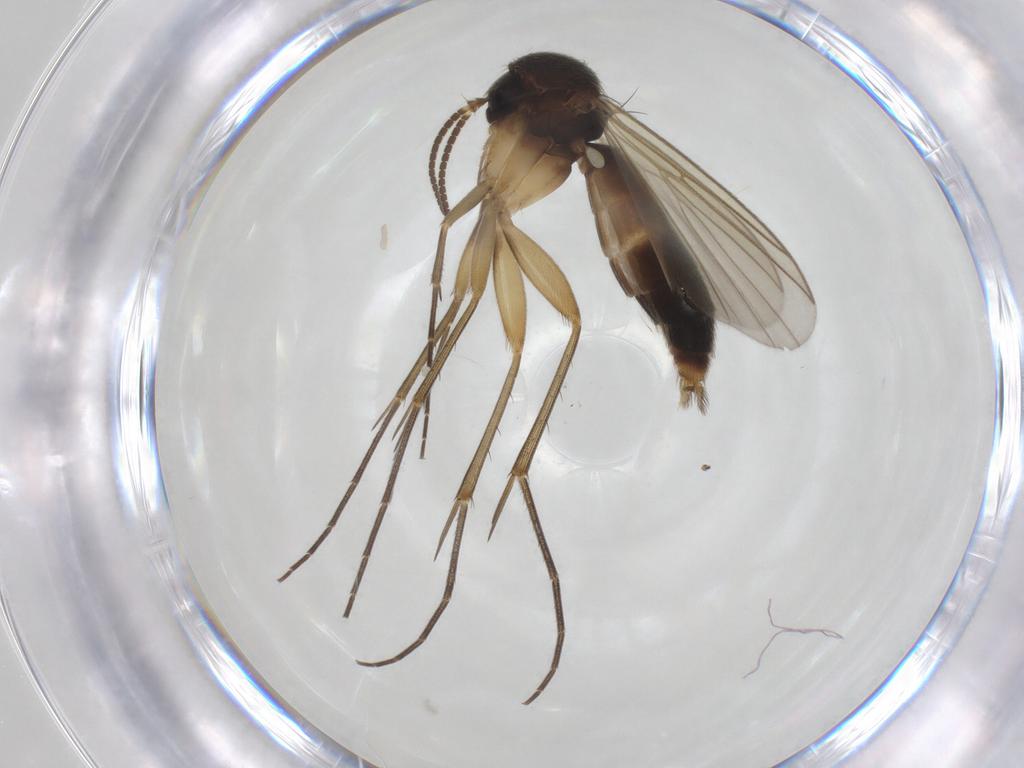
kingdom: Animalia
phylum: Arthropoda
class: Insecta
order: Diptera
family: Mycetophilidae
